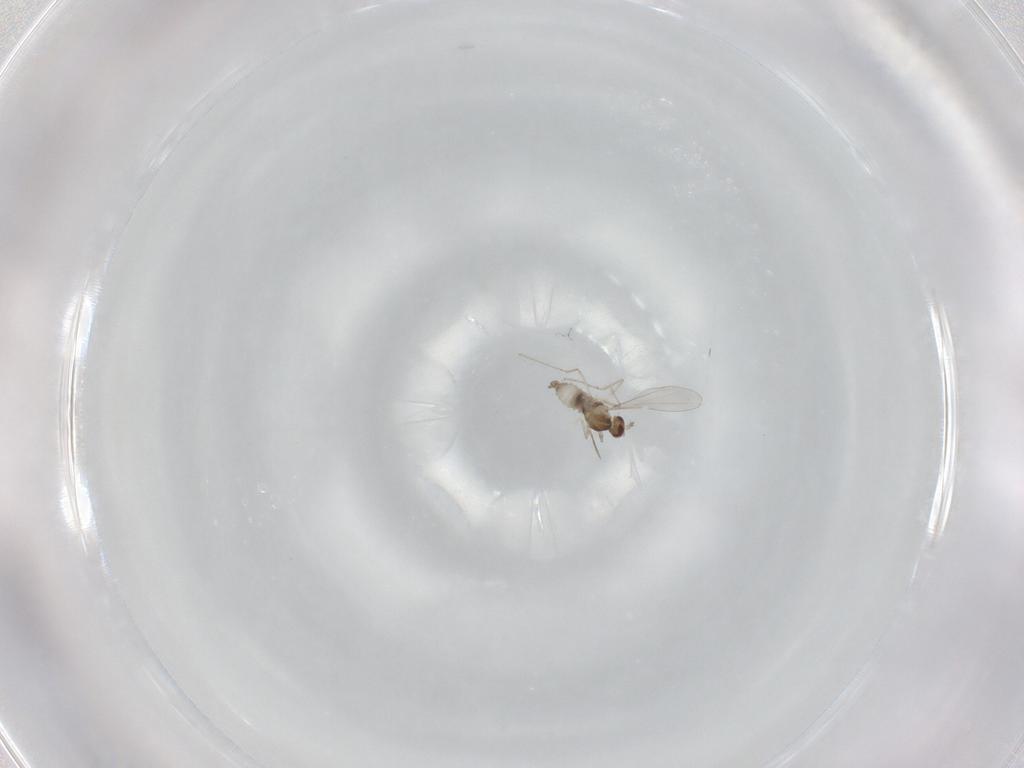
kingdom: Animalia
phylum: Arthropoda
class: Insecta
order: Diptera
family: Cecidomyiidae
